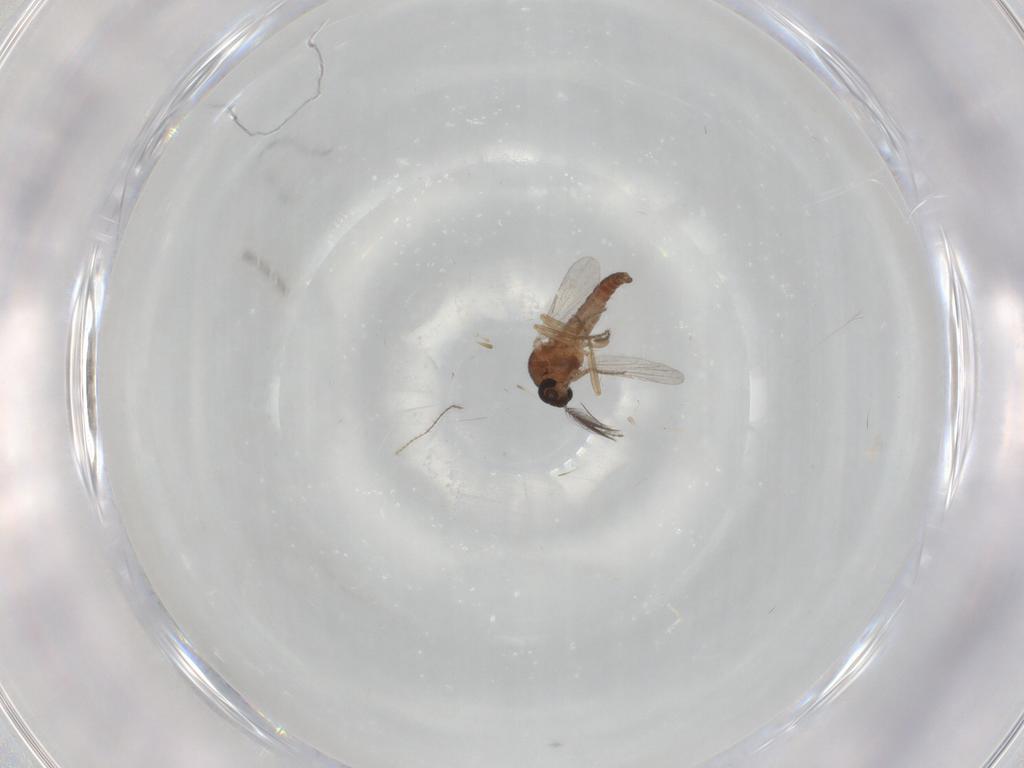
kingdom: Animalia
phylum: Arthropoda
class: Insecta
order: Diptera
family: Ceratopogonidae
